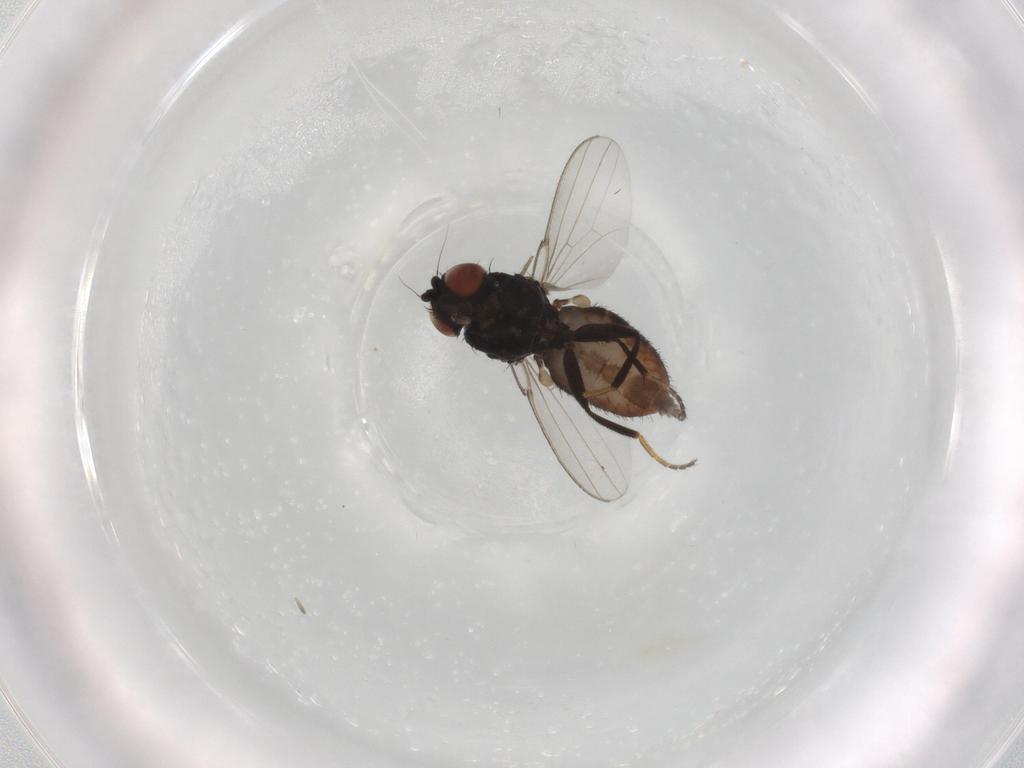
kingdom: Animalia
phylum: Arthropoda
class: Insecta
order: Diptera
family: Milichiidae
